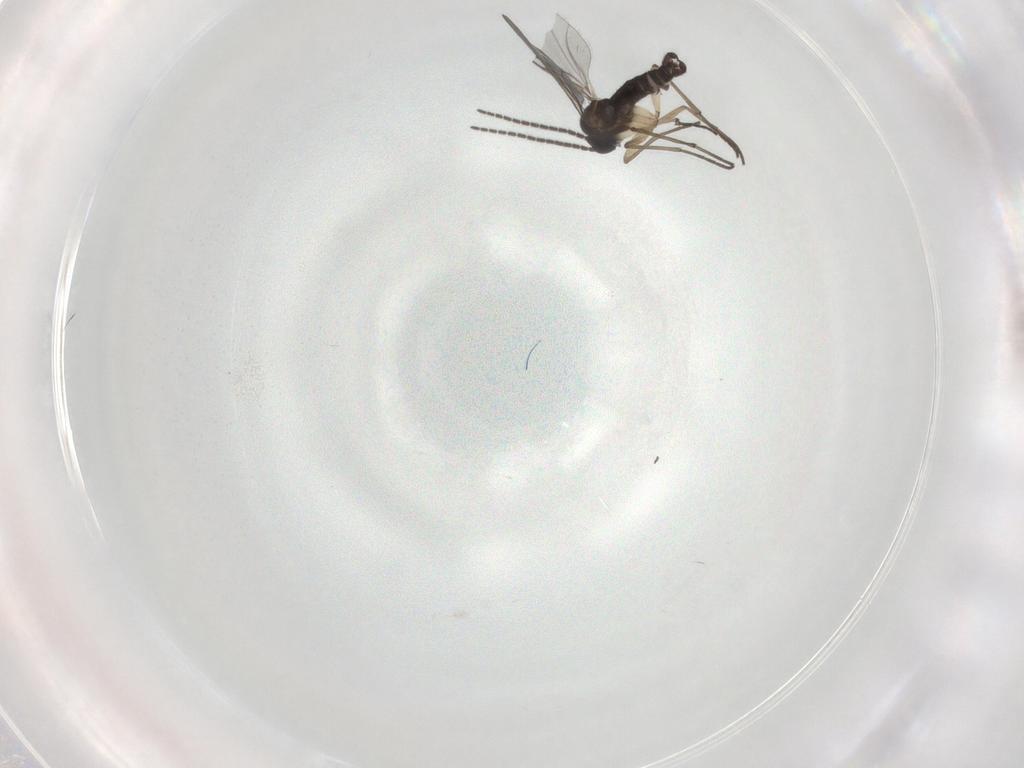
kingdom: Animalia
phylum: Arthropoda
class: Insecta
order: Diptera
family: Sciaridae
